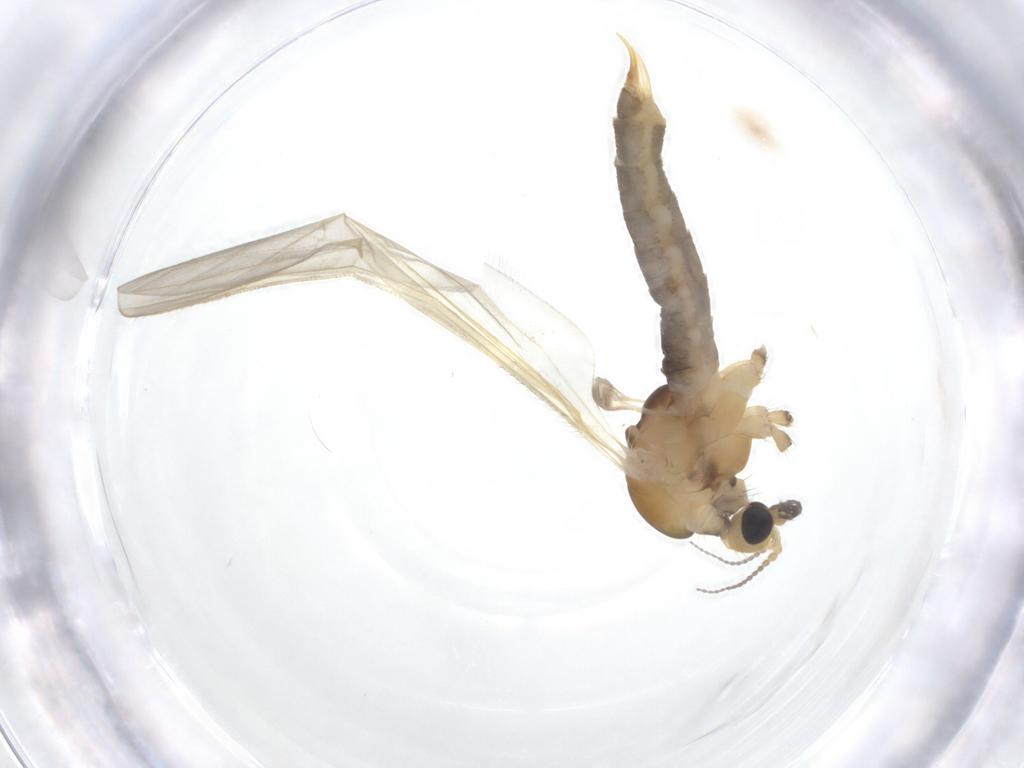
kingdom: Animalia
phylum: Arthropoda
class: Insecta
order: Diptera
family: Limoniidae
